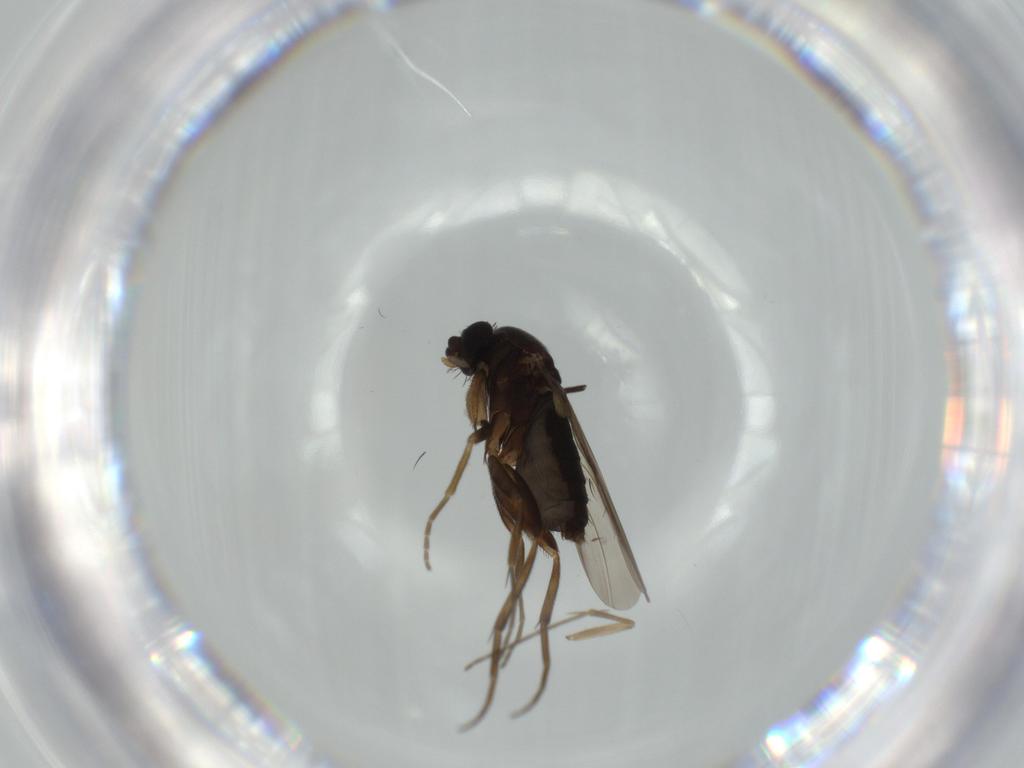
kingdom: Animalia
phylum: Arthropoda
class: Insecta
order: Diptera
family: Phoridae
